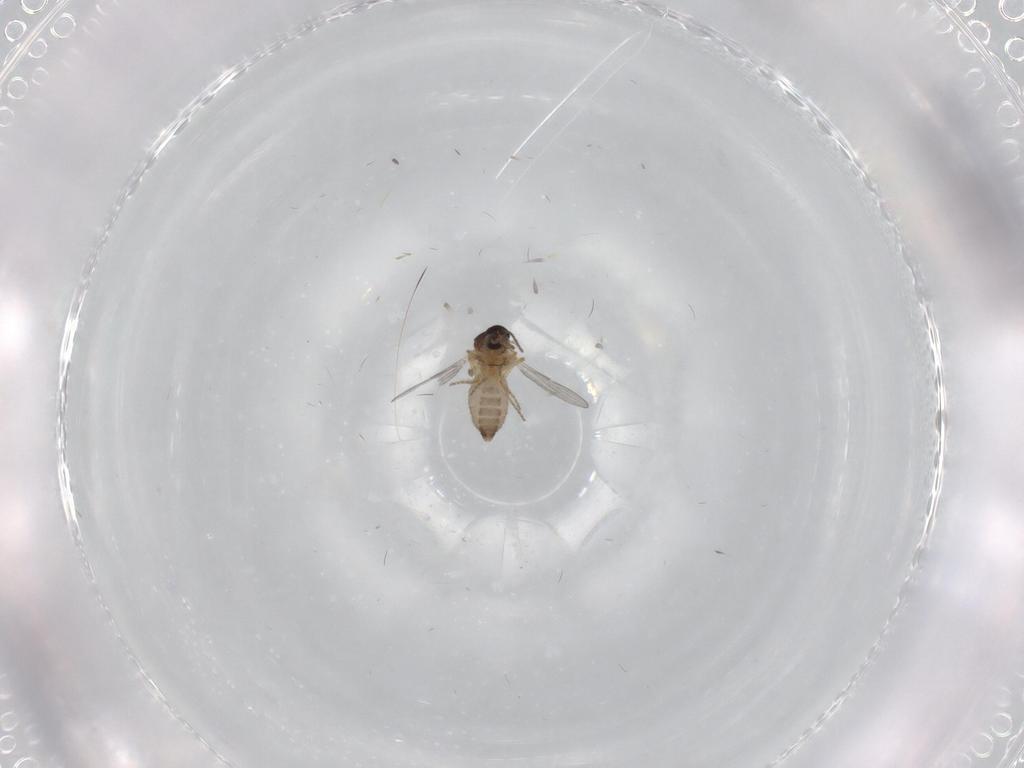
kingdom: Animalia
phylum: Arthropoda
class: Insecta
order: Diptera
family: Ceratopogonidae
